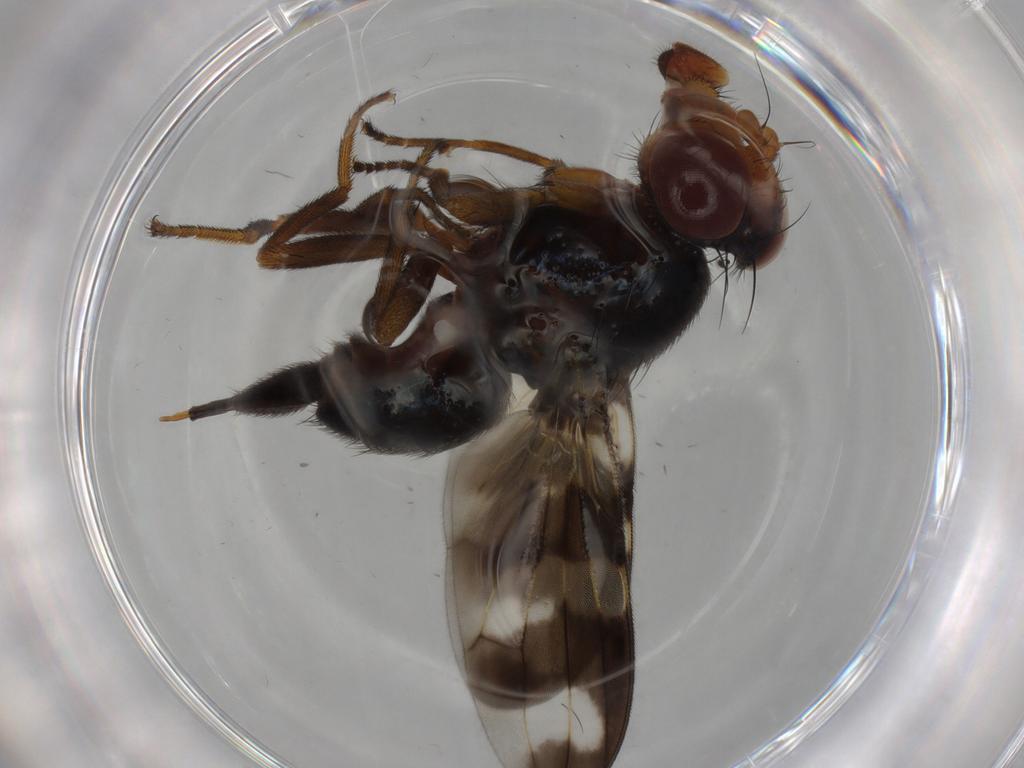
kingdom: Animalia
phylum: Arthropoda
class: Insecta
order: Diptera
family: Ulidiidae
